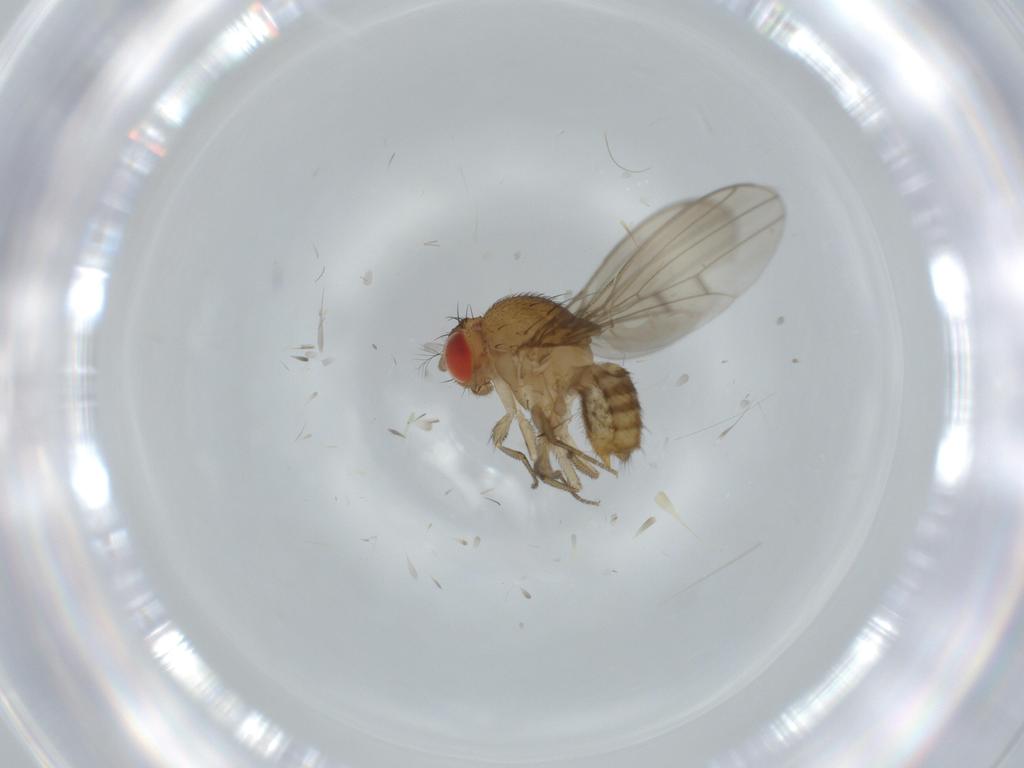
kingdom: Animalia
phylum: Arthropoda
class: Insecta
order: Diptera
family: Drosophilidae
